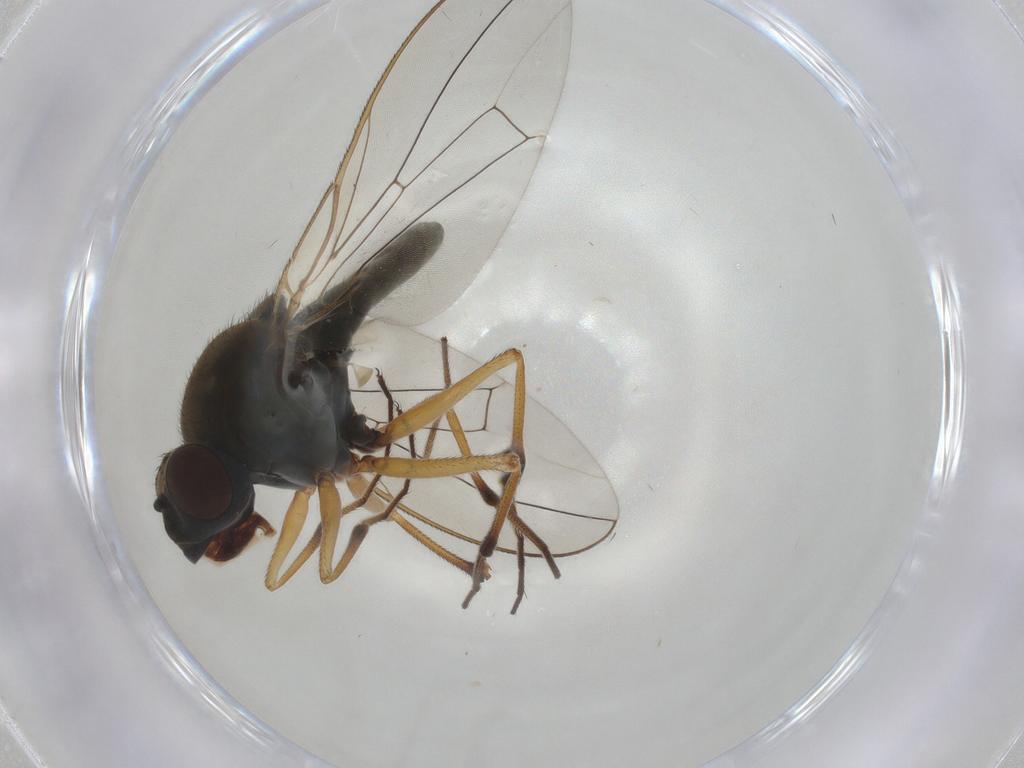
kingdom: Animalia
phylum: Arthropoda
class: Insecta
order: Diptera
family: Ephydridae
